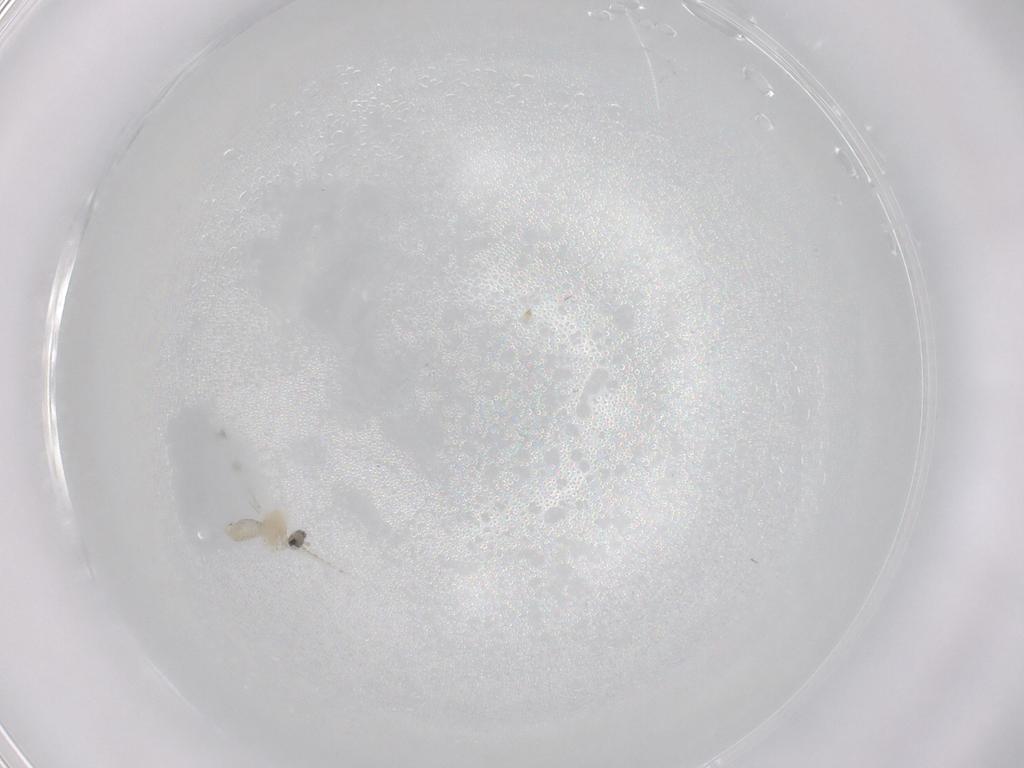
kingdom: Animalia
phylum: Arthropoda
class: Insecta
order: Diptera
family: Cecidomyiidae
